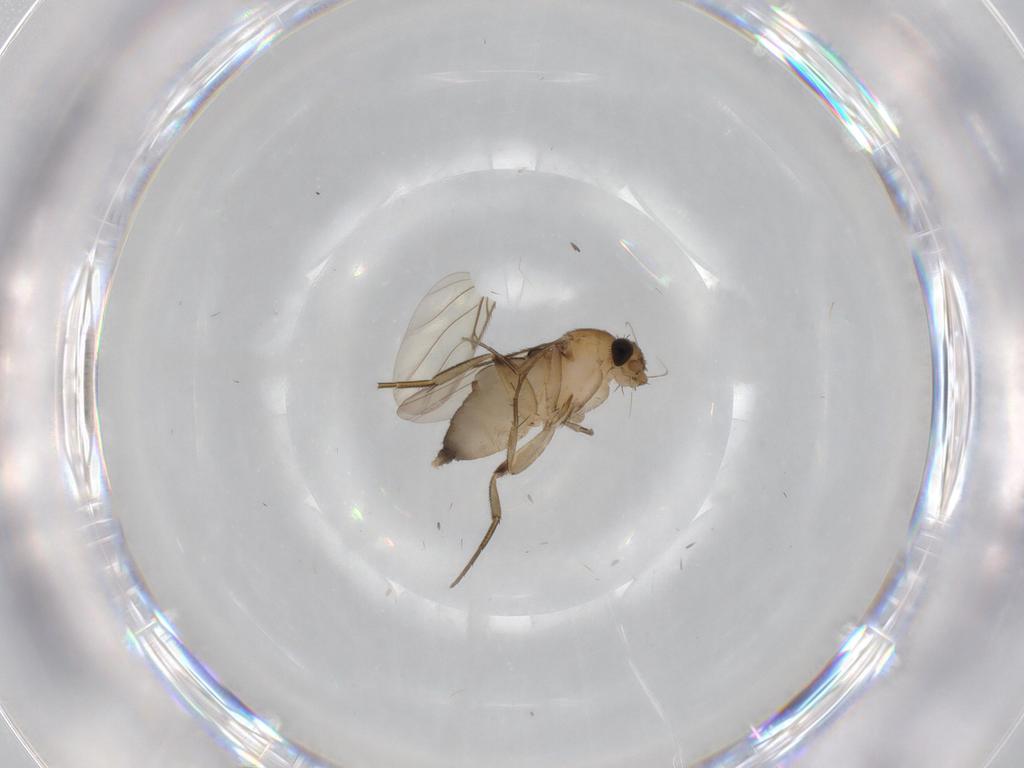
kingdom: Animalia
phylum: Arthropoda
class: Insecta
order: Diptera
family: Phoridae
